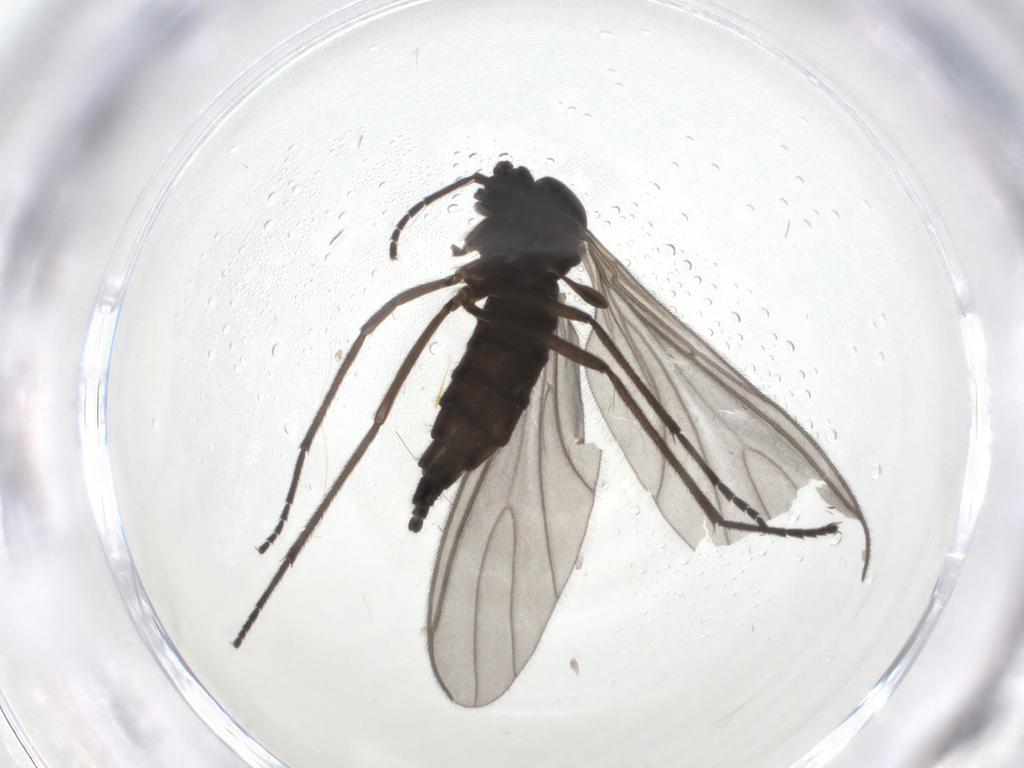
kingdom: Animalia
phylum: Arthropoda
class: Insecta
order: Diptera
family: Sciaridae
